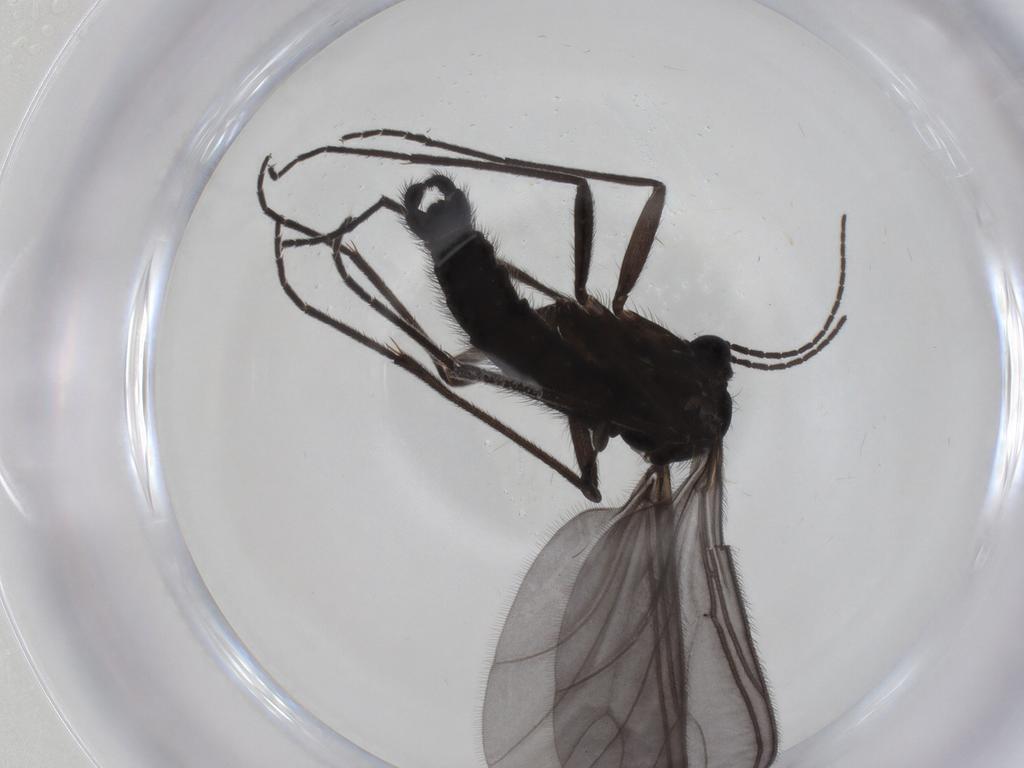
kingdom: Animalia
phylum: Arthropoda
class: Insecta
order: Diptera
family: Sciaridae
